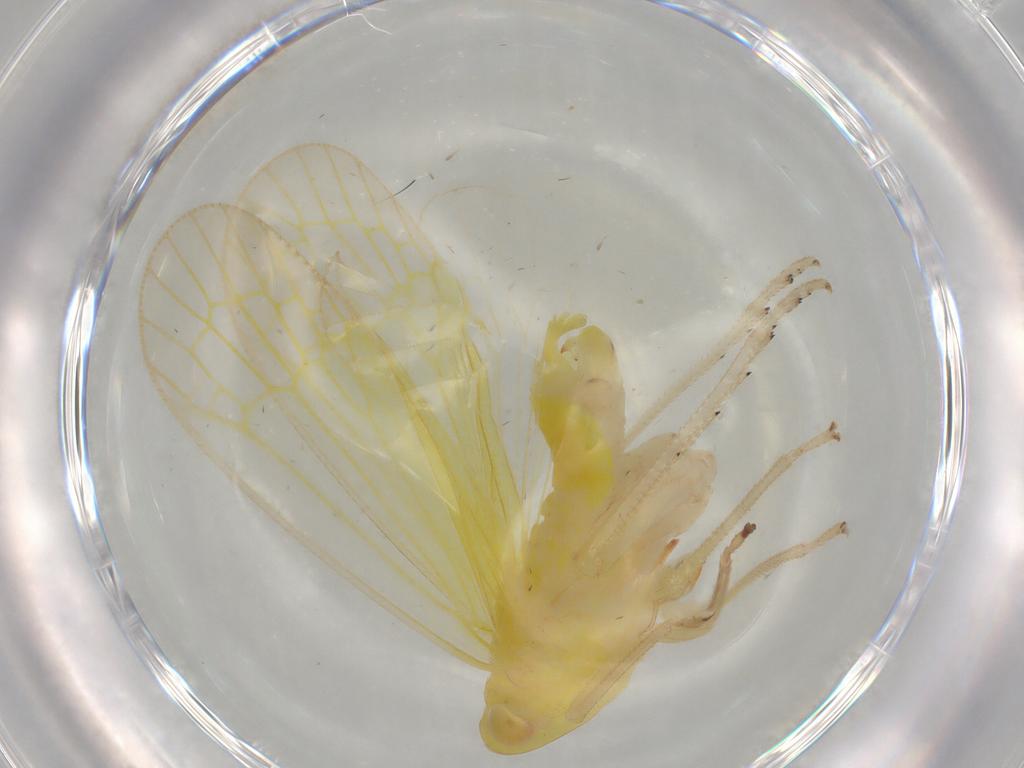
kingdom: Animalia
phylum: Arthropoda
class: Insecta
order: Hemiptera
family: Tropiduchidae
